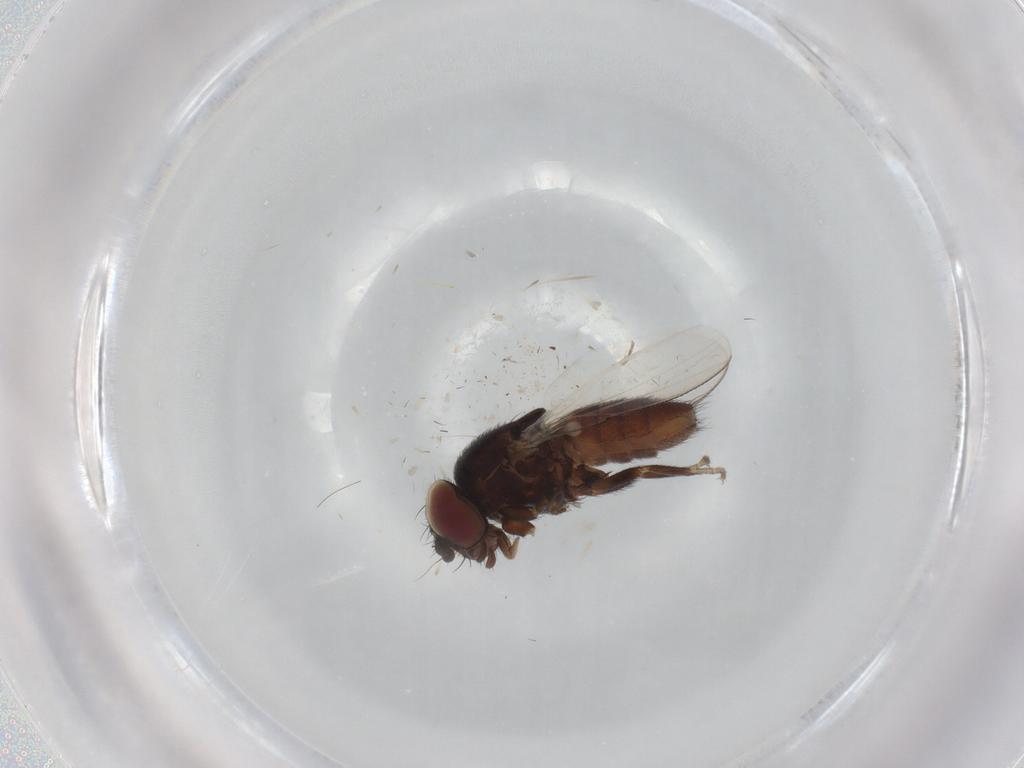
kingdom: Animalia
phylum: Arthropoda
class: Insecta
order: Diptera
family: Milichiidae
